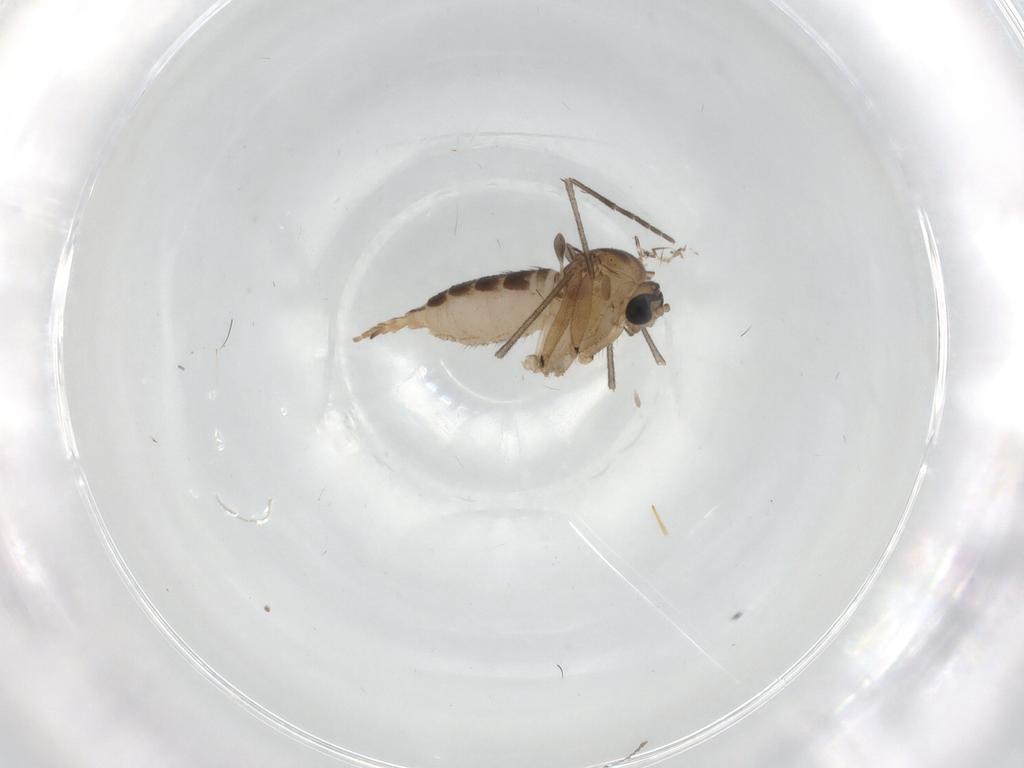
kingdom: Animalia
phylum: Arthropoda
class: Insecta
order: Diptera
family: Sciaridae
